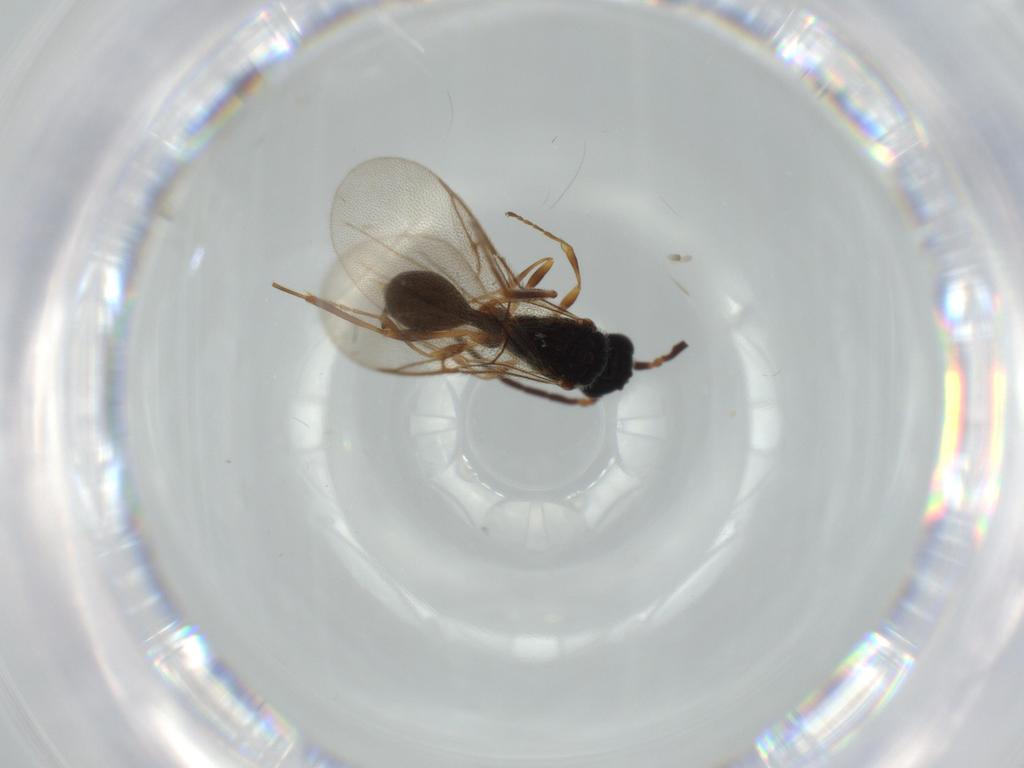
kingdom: Animalia
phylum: Arthropoda
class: Insecta
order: Hymenoptera
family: Diapriidae
